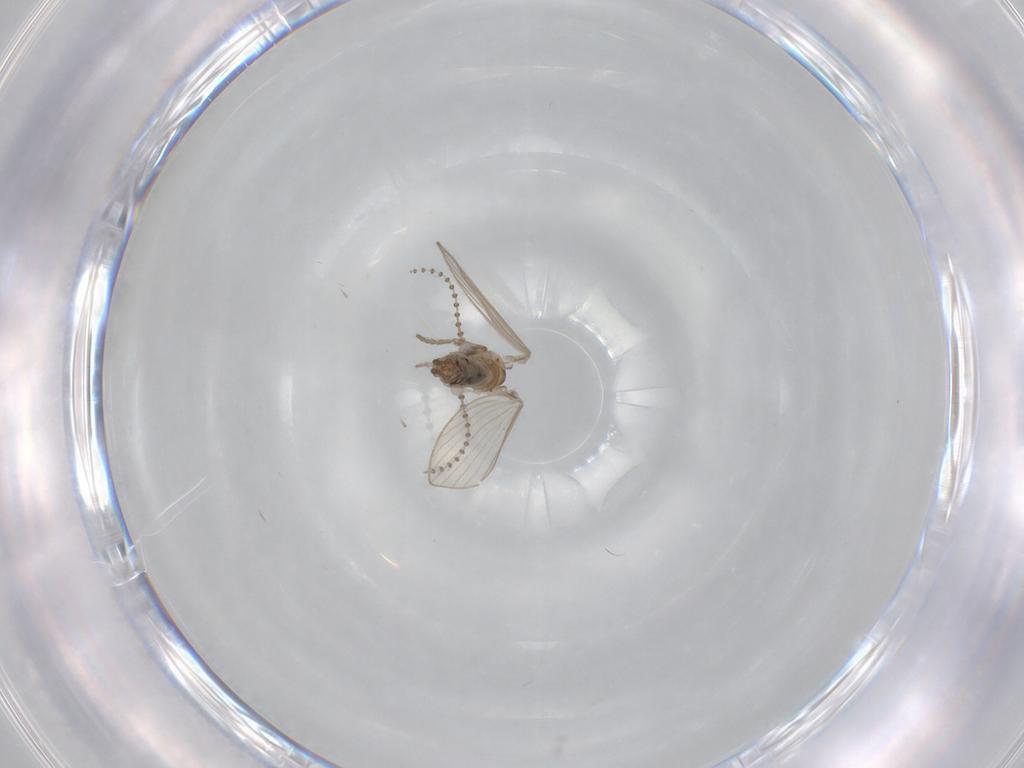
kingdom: Animalia
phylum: Arthropoda
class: Insecta
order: Diptera
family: Psychodidae
